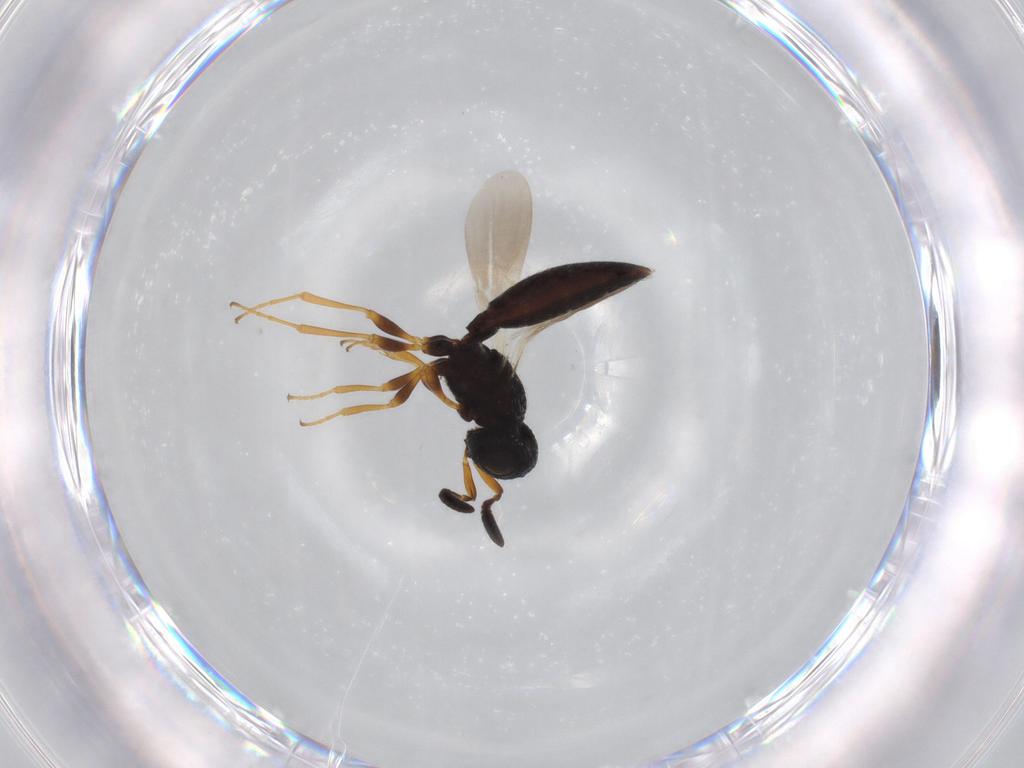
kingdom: Animalia
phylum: Arthropoda
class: Insecta
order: Hymenoptera
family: Scelionidae
